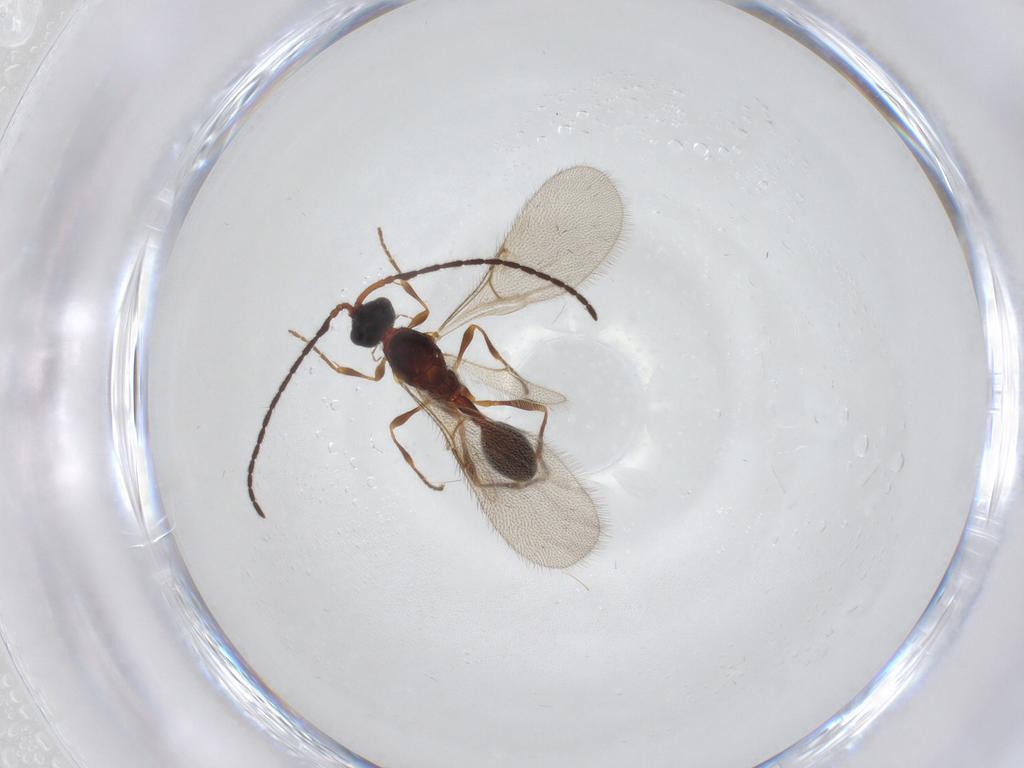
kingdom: Animalia
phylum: Arthropoda
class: Insecta
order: Hymenoptera
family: Diapriidae
